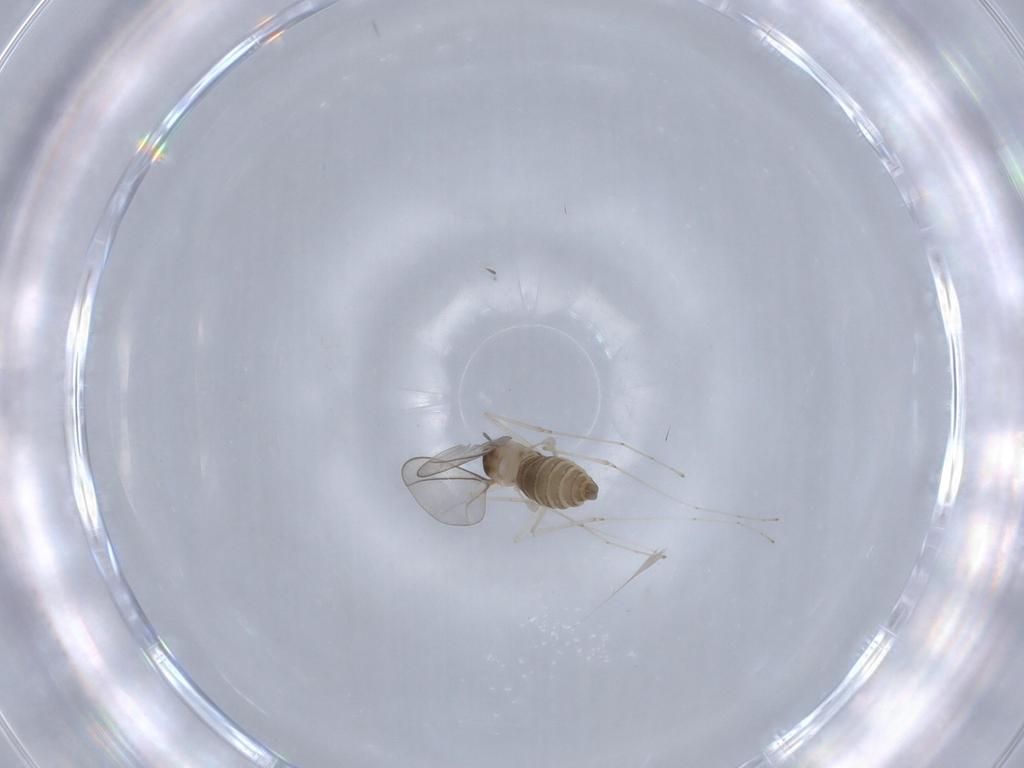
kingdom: Animalia
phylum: Arthropoda
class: Insecta
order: Diptera
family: Cecidomyiidae
